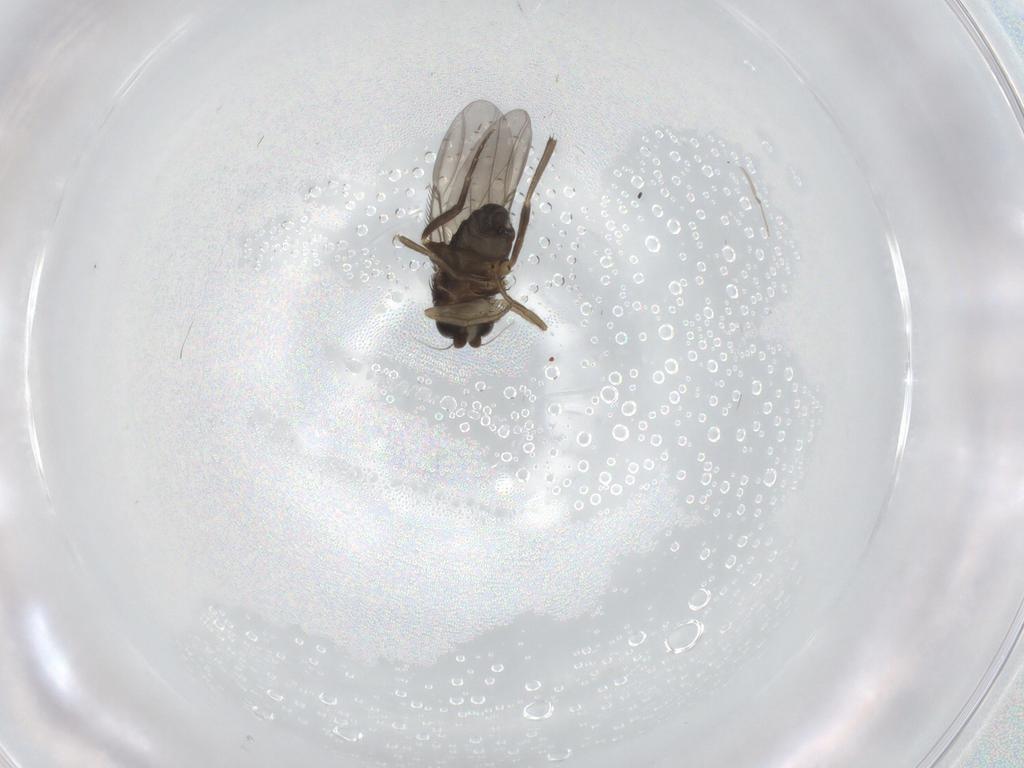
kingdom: Animalia
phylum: Arthropoda
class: Insecta
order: Diptera
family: Phoridae
